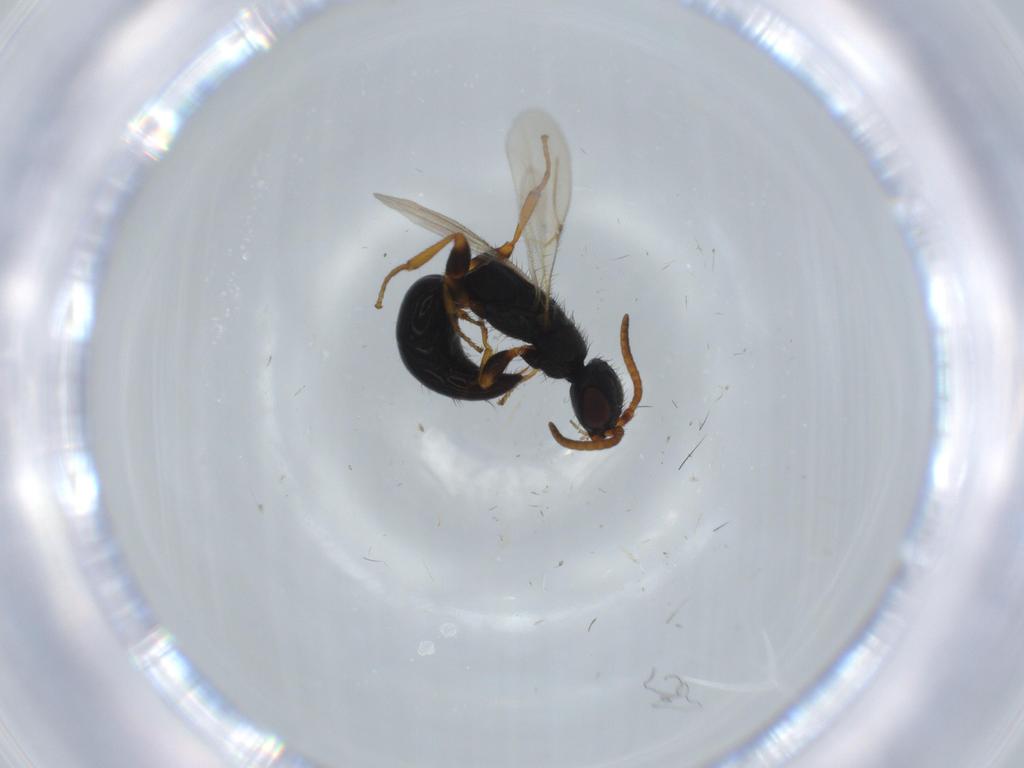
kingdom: Animalia
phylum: Arthropoda
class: Insecta
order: Hymenoptera
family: Bethylidae
